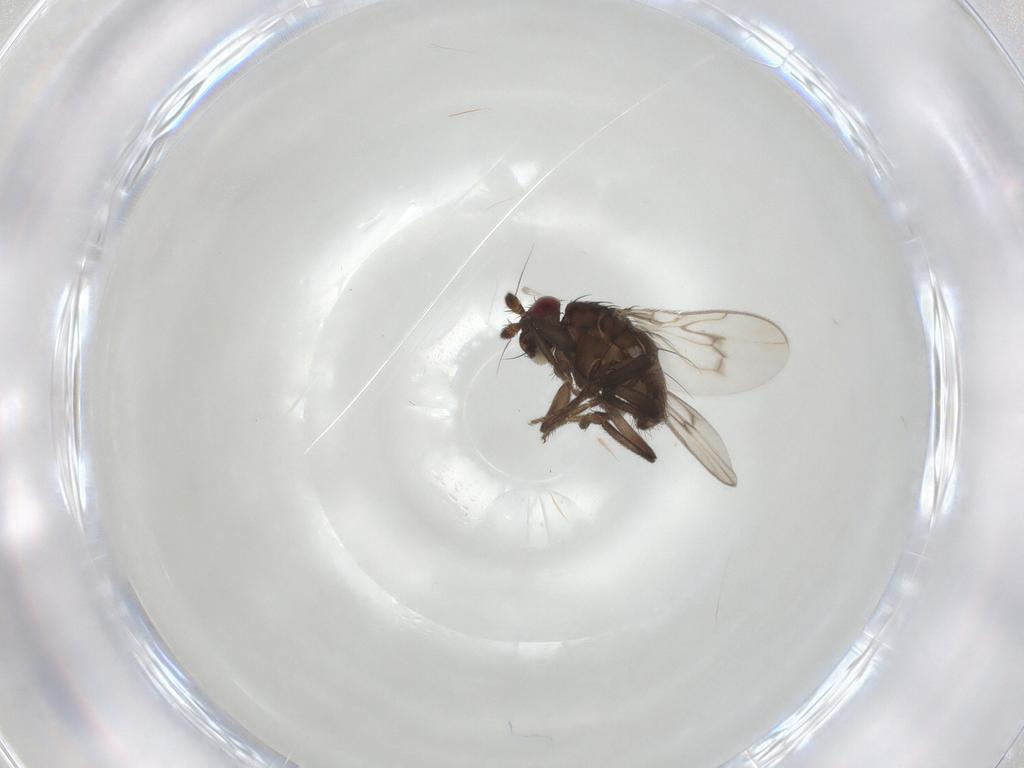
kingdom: Animalia
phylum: Arthropoda
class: Insecta
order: Diptera
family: Sphaeroceridae
